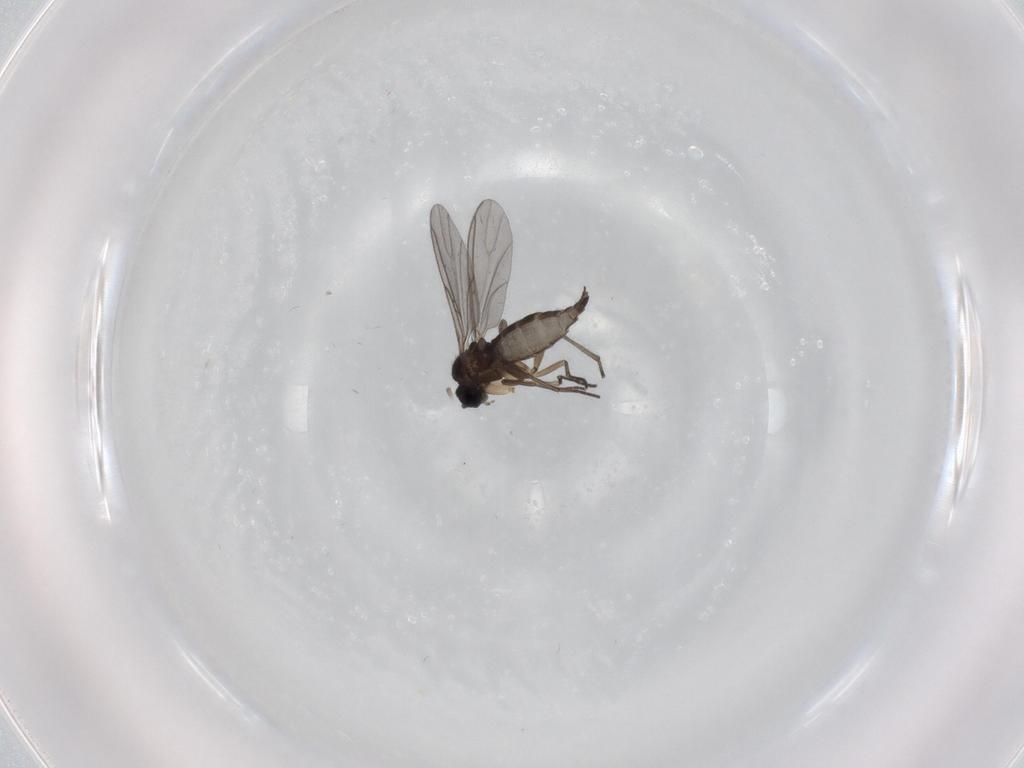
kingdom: Animalia
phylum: Arthropoda
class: Insecta
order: Diptera
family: Sciaridae
